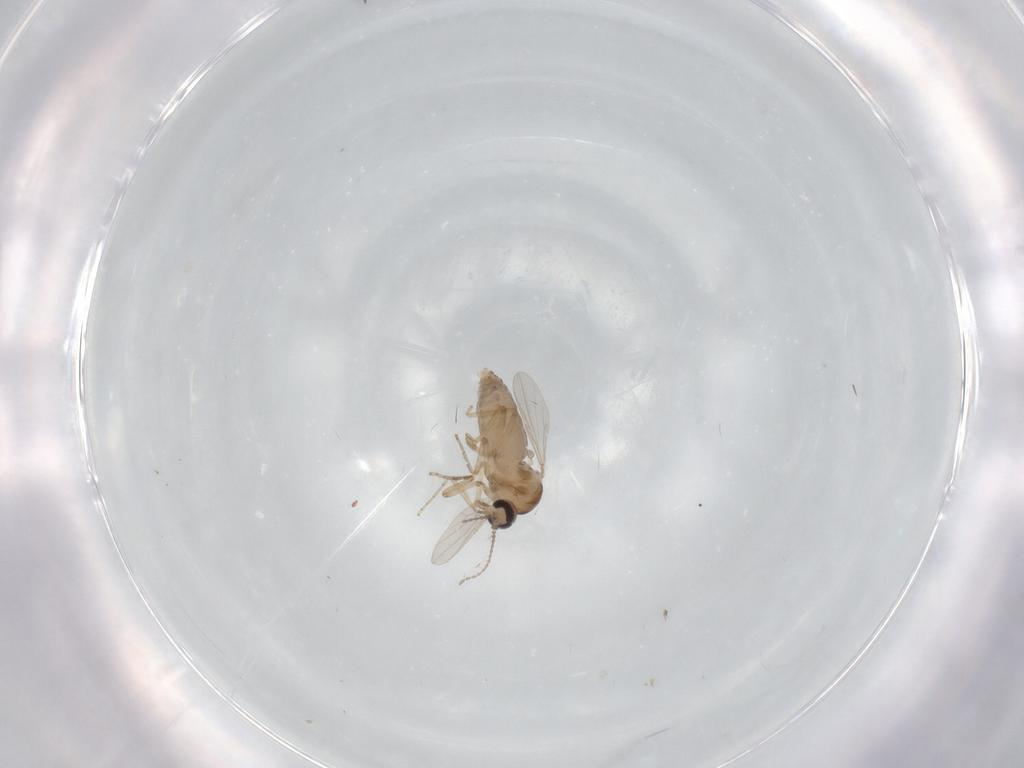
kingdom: Animalia
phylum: Arthropoda
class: Insecta
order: Diptera
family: Ceratopogonidae
